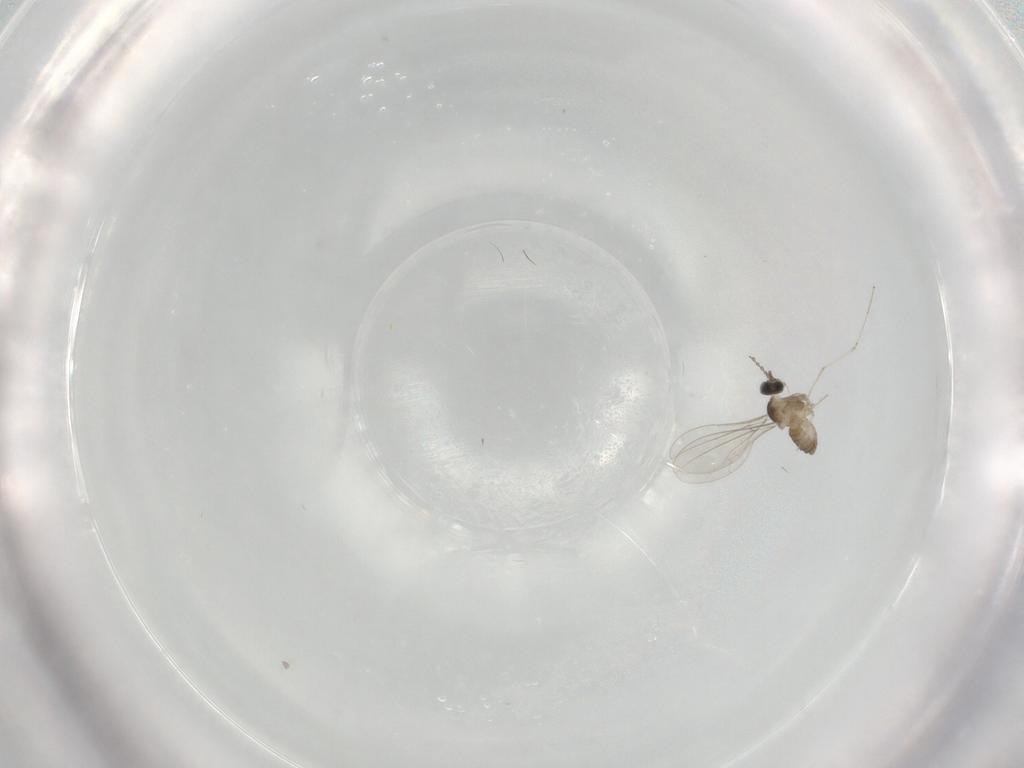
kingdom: Animalia
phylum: Arthropoda
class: Insecta
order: Diptera
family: Cecidomyiidae
